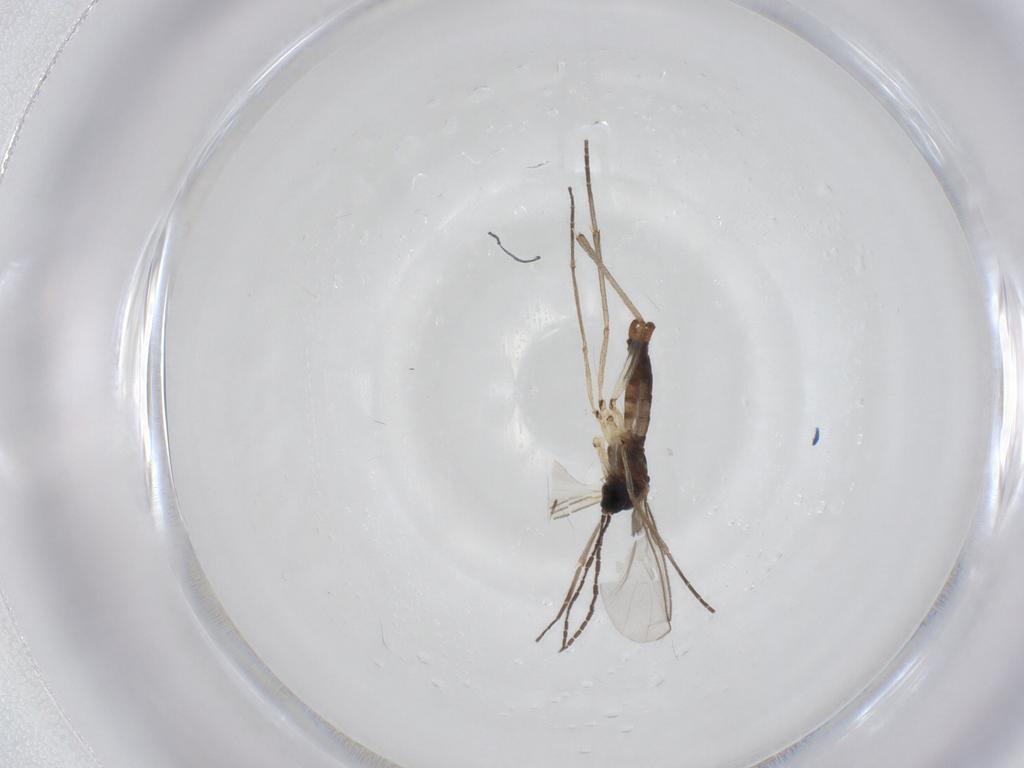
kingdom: Animalia
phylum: Arthropoda
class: Insecta
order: Diptera
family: Sciaridae
